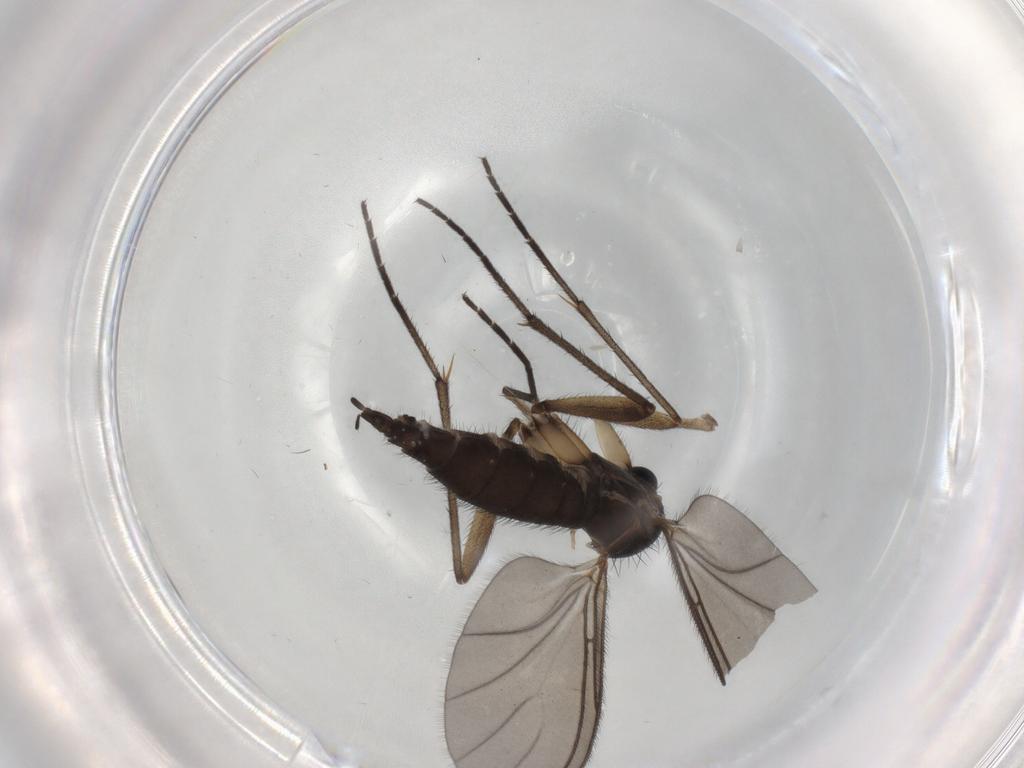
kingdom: Animalia
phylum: Arthropoda
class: Insecta
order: Diptera
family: Sciaridae
